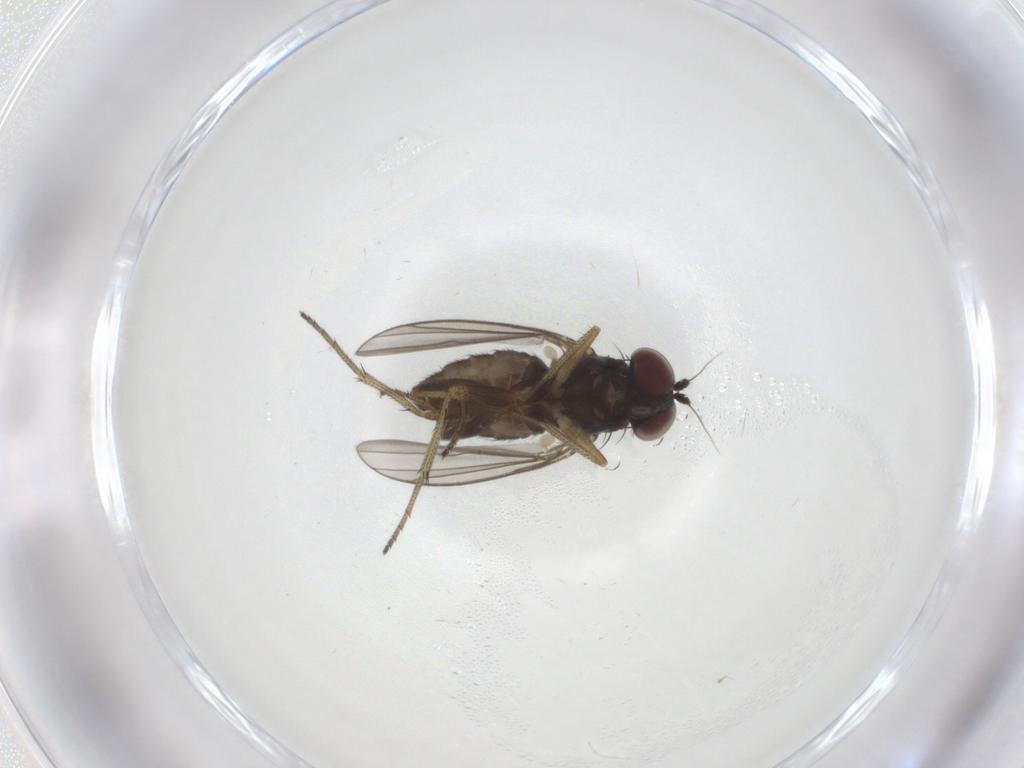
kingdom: Animalia
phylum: Arthropoda
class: Insecta
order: Diptera
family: Dolichopodidae
